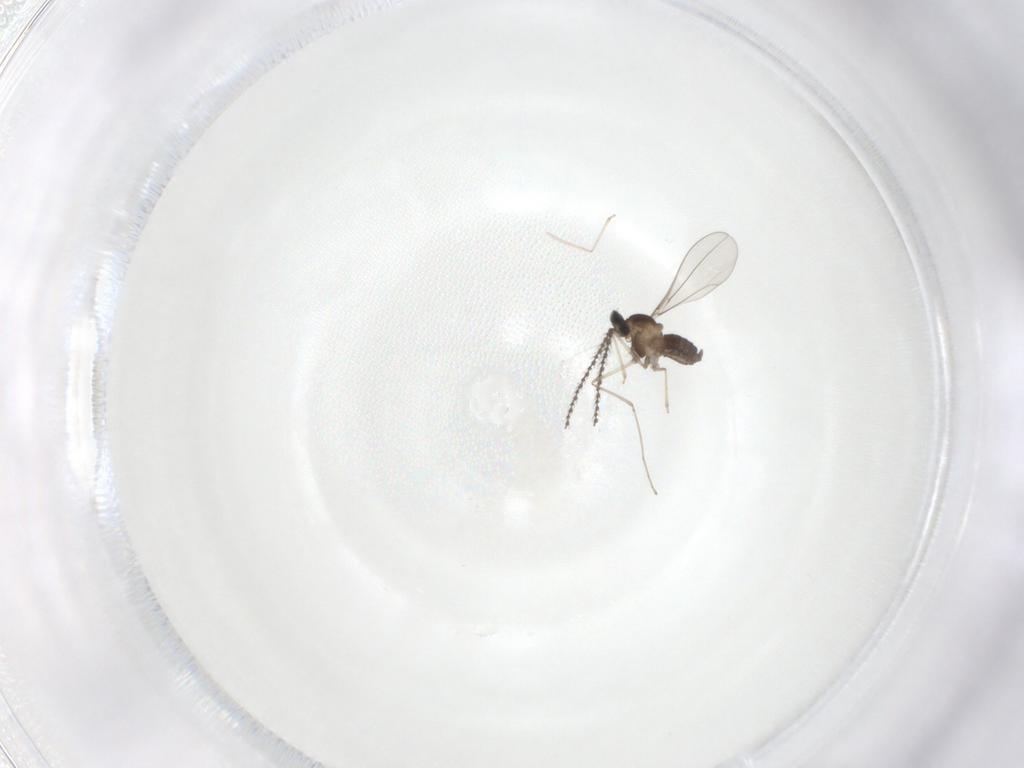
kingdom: Animalia
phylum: Arthropoda
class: Insecta
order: Diptera
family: Cecidomyiidae
